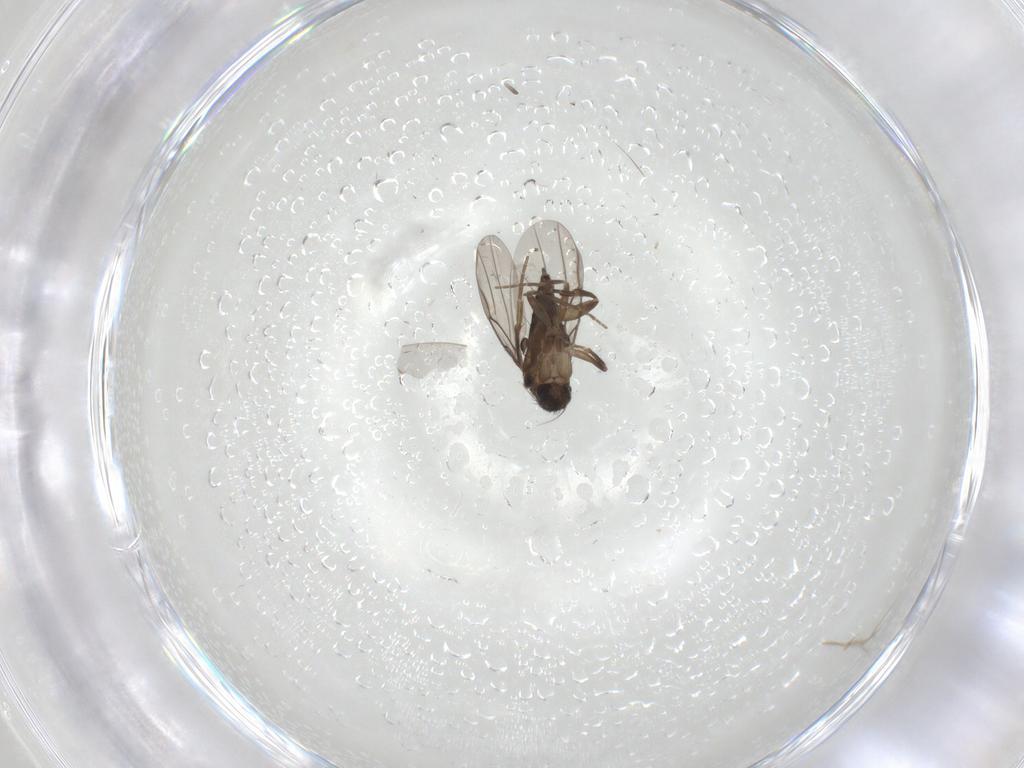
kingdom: Animalia
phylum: Arthropoda
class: Insecta
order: Diptera
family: Phoridae
